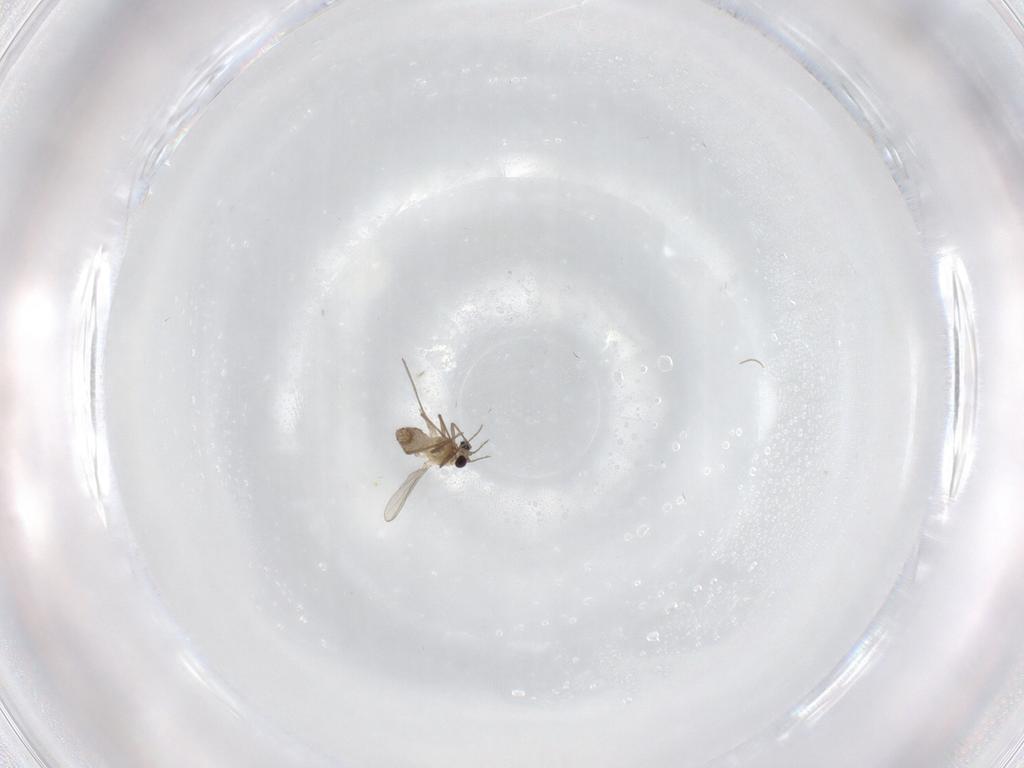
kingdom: Animalia
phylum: Arthropoda
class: Insecta
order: Diptera
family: Chironomidae
